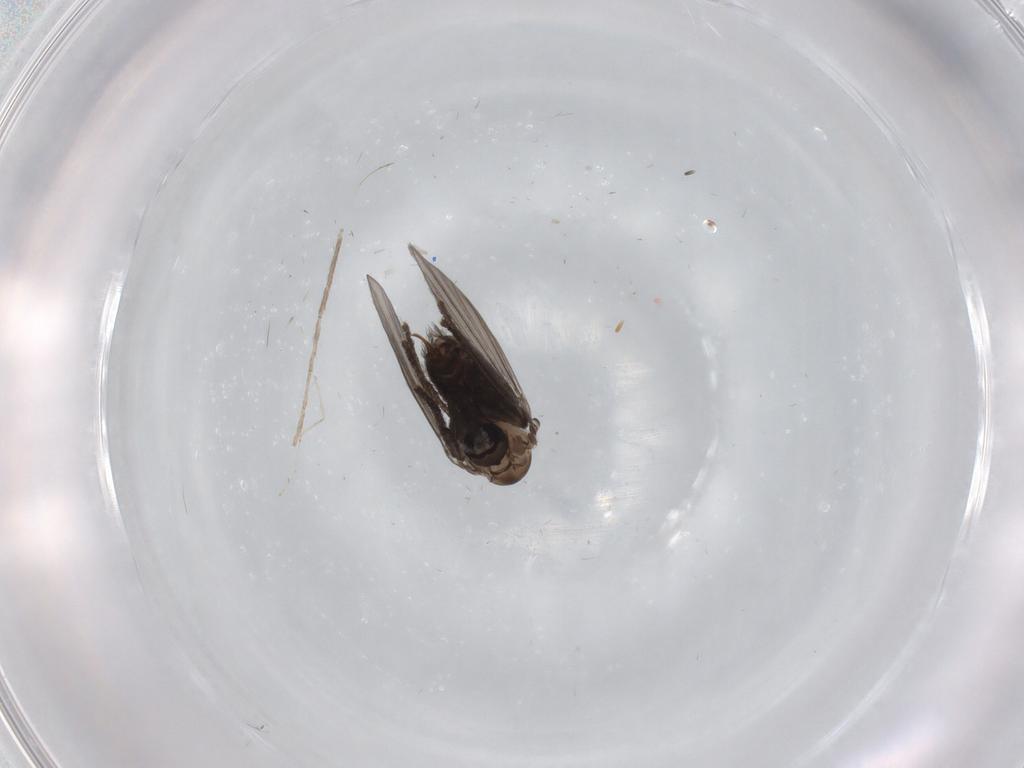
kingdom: Animalia
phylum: Arthropoda
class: Insecta
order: Diptera
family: Psychodidae
